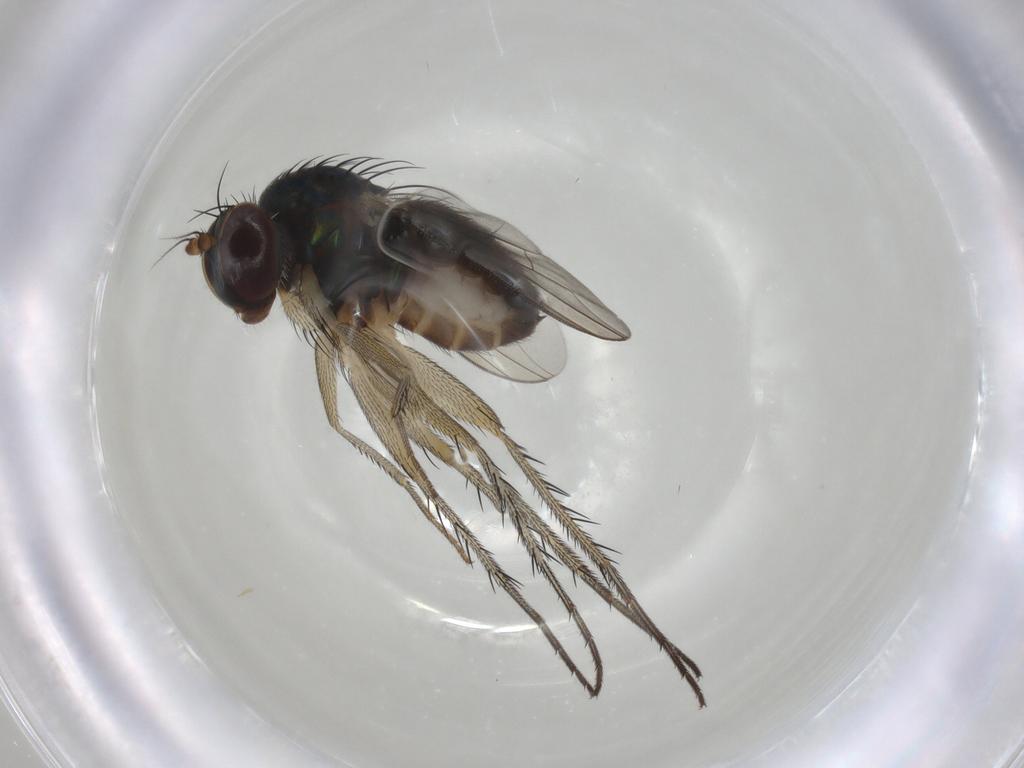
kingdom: Animalia
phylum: Arthropoda
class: Insecta
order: Diptera
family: Dolichopodidae
